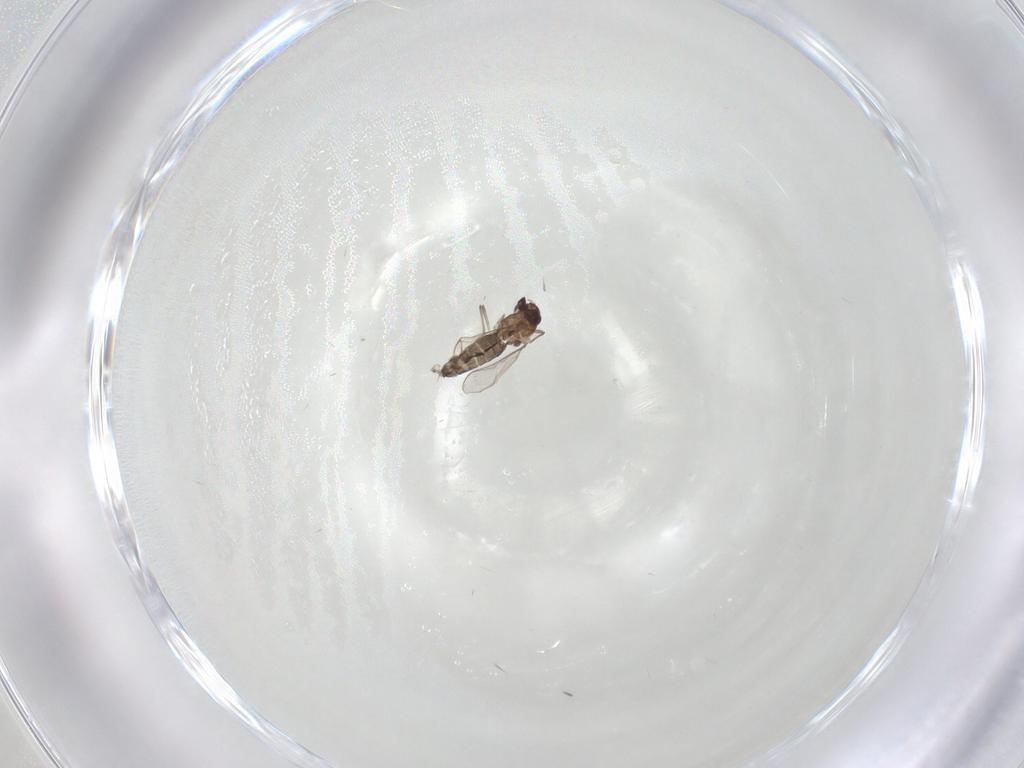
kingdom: Animalia
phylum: Arthropoda
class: Insecta
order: Diptera
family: Chironomidae
